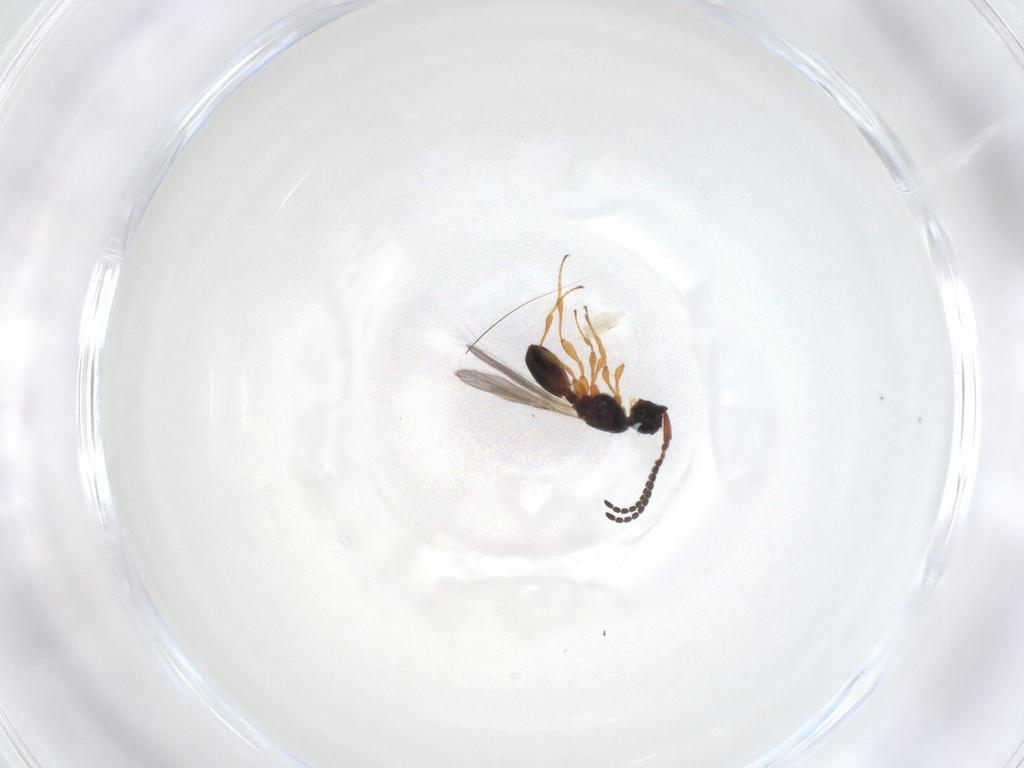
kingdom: Animalia
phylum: Arthropoda
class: Insecta
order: Hymenoptera
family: Diapriidae
